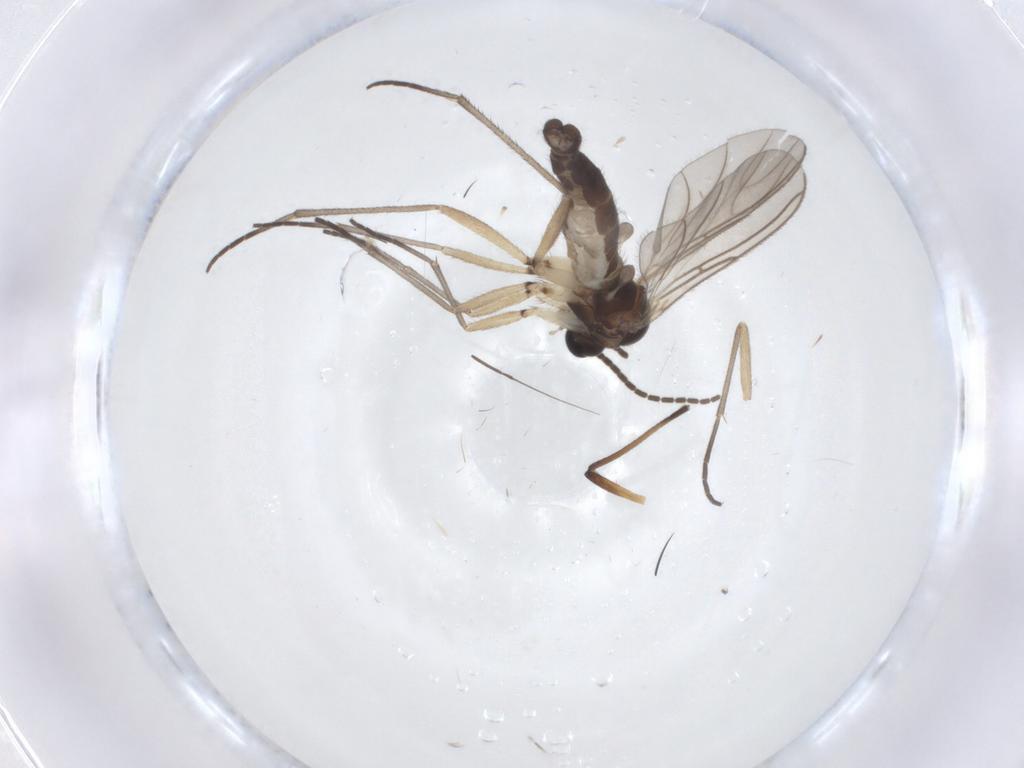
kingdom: Animalia
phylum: Arthropoda
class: Insecta
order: Diptera
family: Sciaridae
